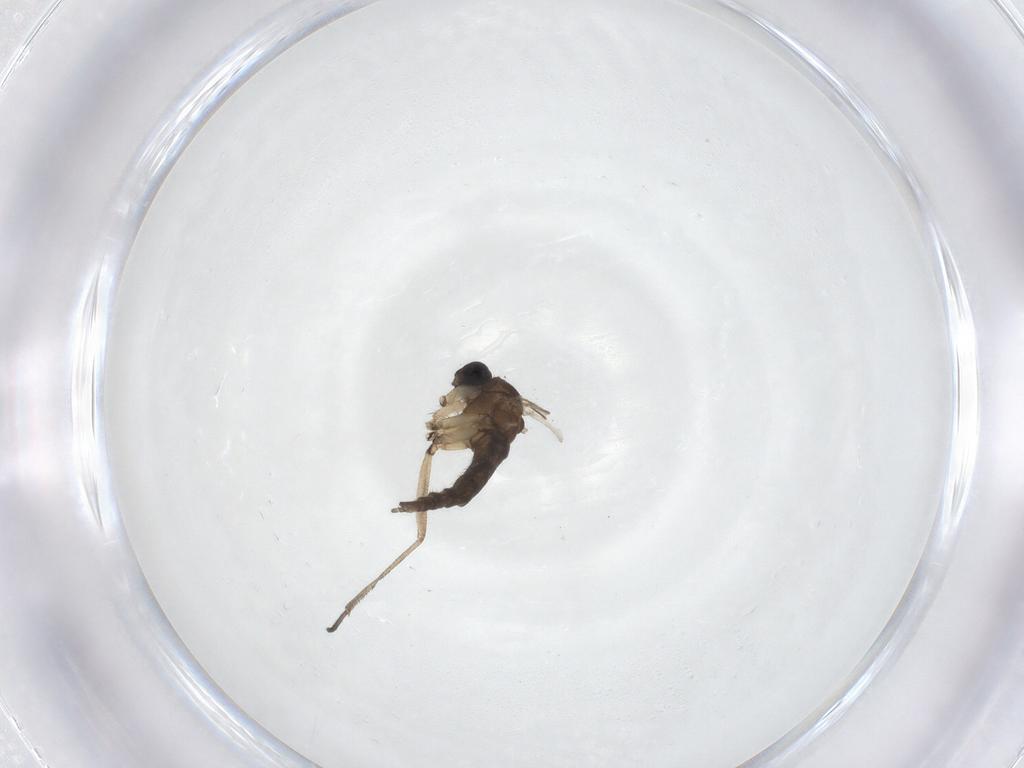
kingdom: Animalia
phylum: Arthropoda
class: Insecta
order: Diptera
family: Sciaridae
